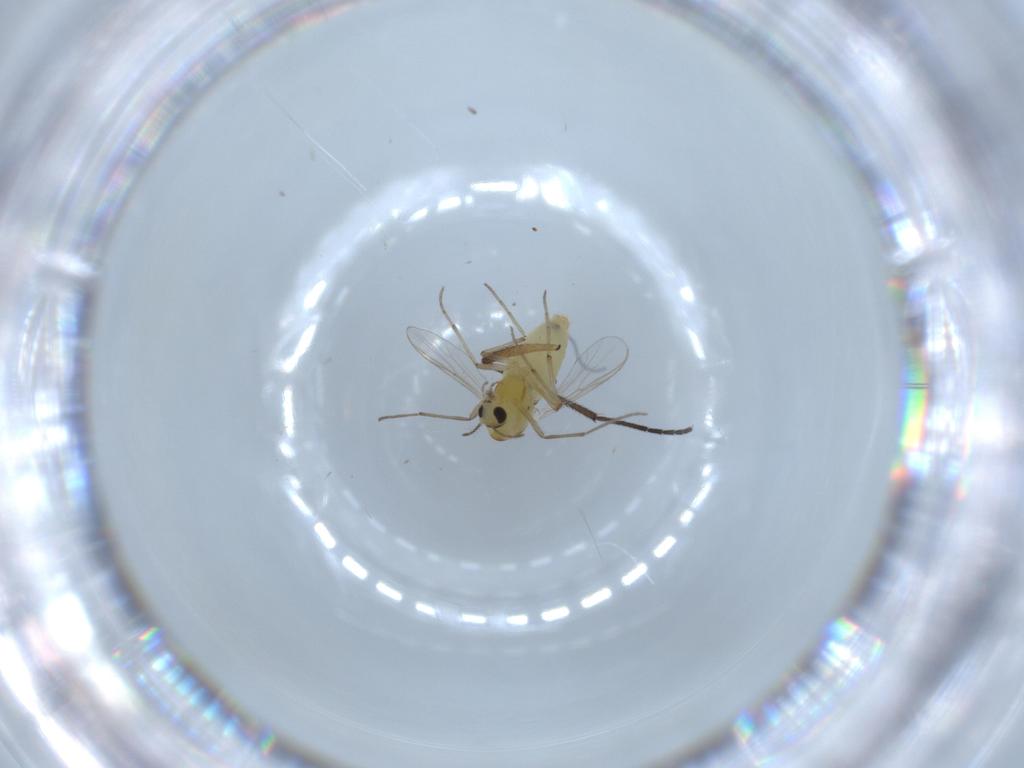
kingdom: Animalia
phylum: Arthropoda
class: Insecta
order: Diptera
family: Chironomidae
